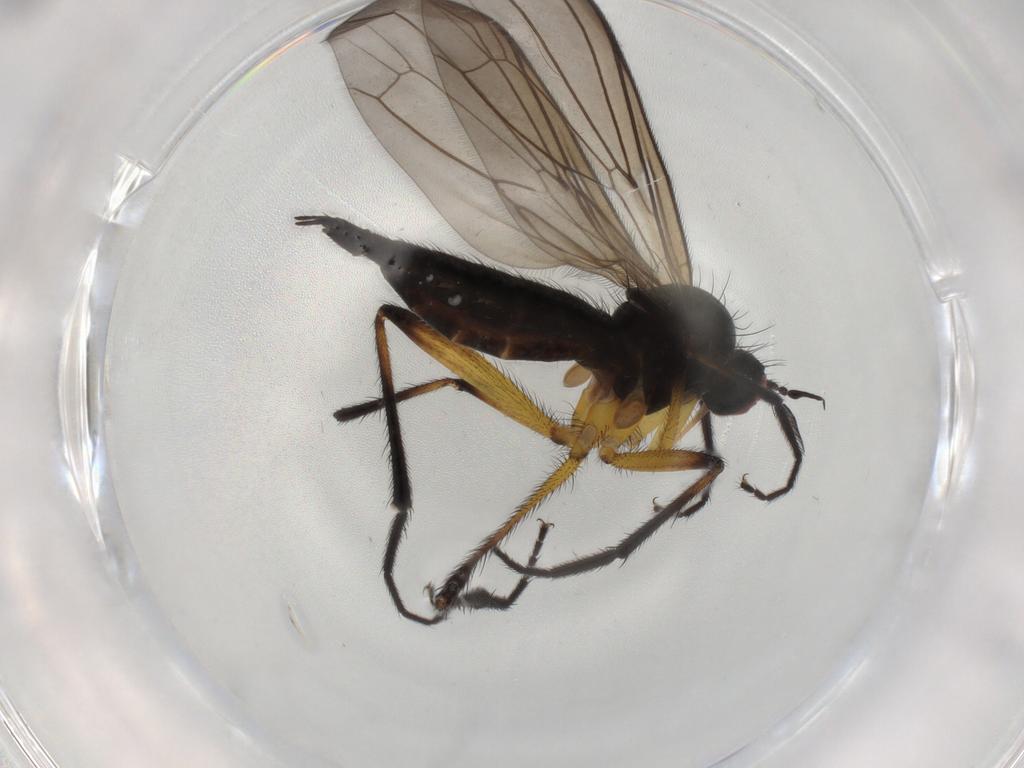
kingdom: Animalia
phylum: Arthropoda
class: Insecta
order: Diptera
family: Empididae
